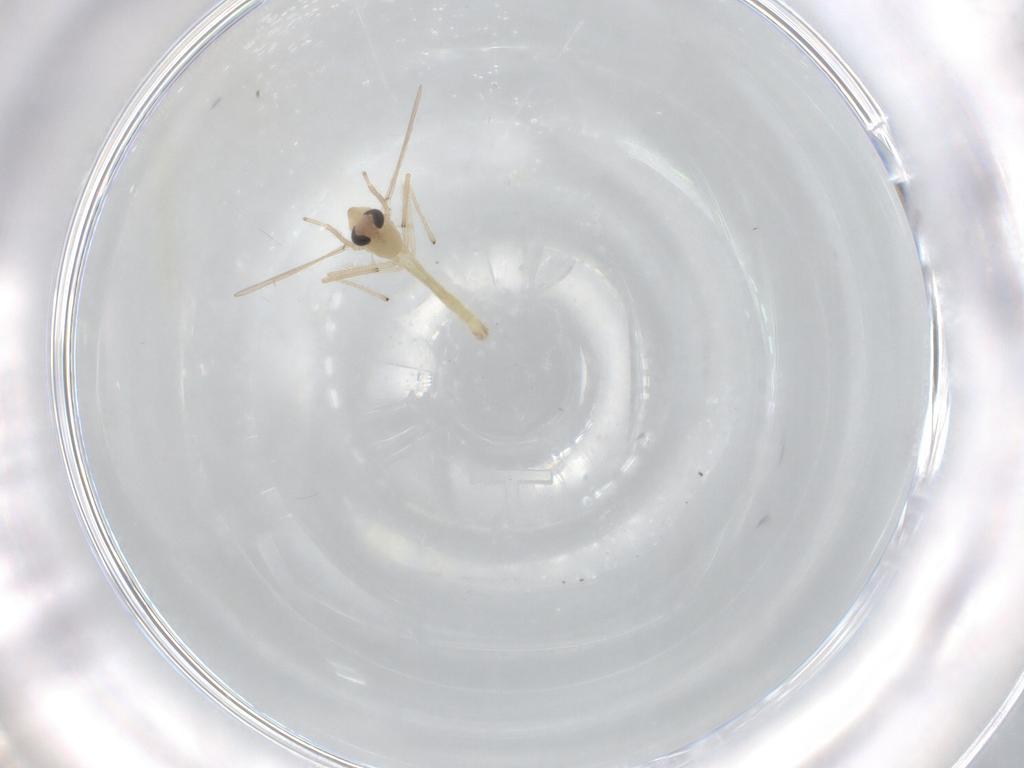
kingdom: Animalia
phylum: Arthropoda
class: Insecta
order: Diptera
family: Chironomidae
